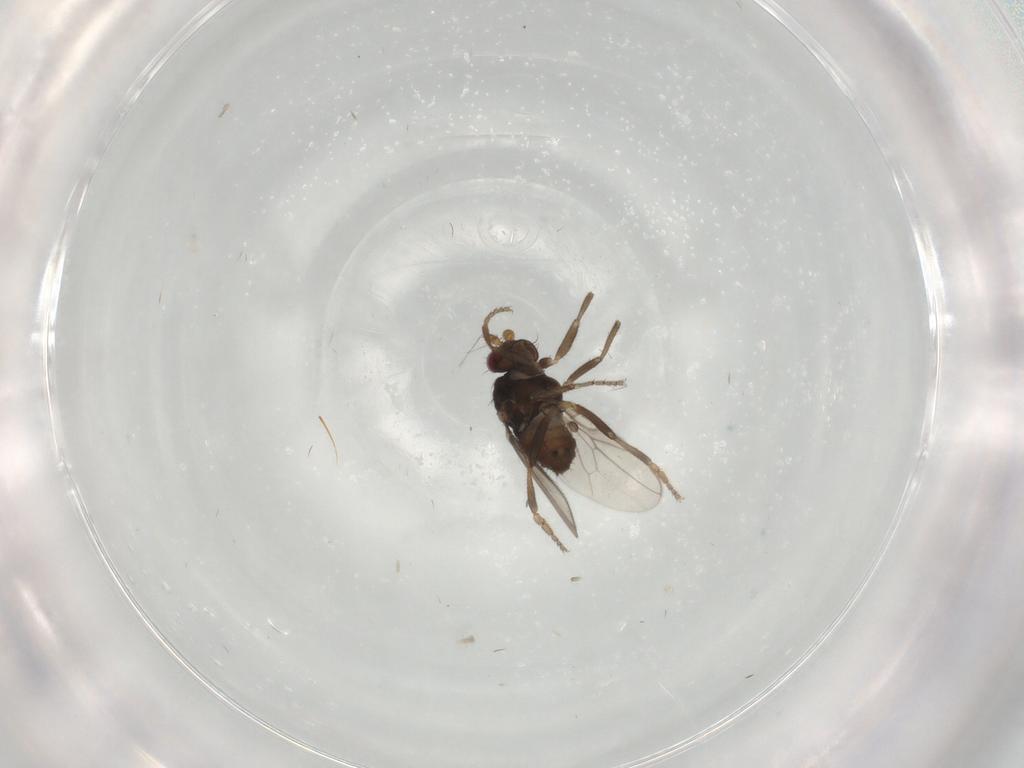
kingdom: Animalia
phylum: Arthropoda
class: Insecta
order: Diptera
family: Sphaeroceridae
